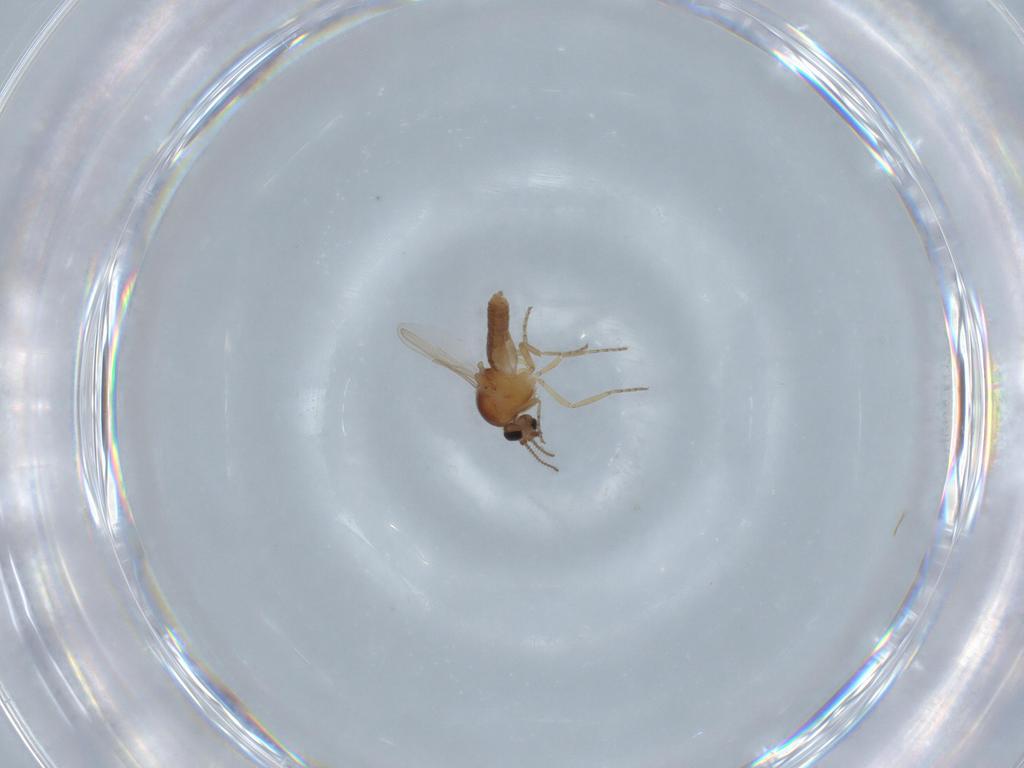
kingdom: Animalia
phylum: Arthropoda
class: Insecta
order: Diptera
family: Ceratopogonidae
